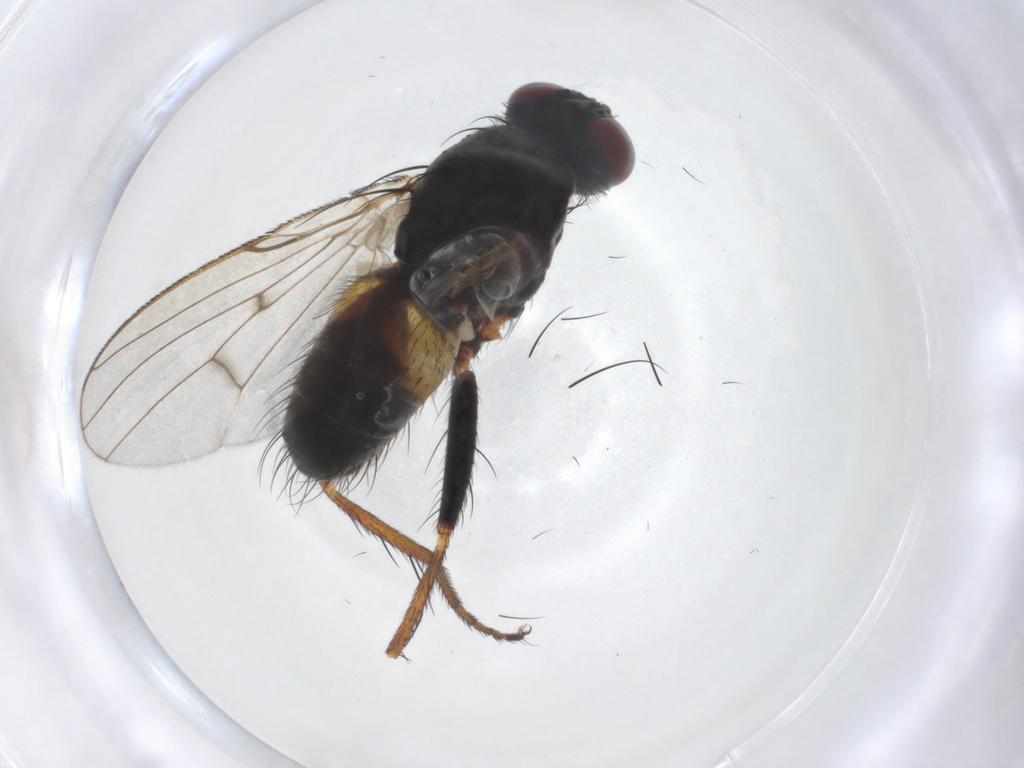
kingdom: Animalia
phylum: Arthropoda
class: Insecta
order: Diptera
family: Muscidae
